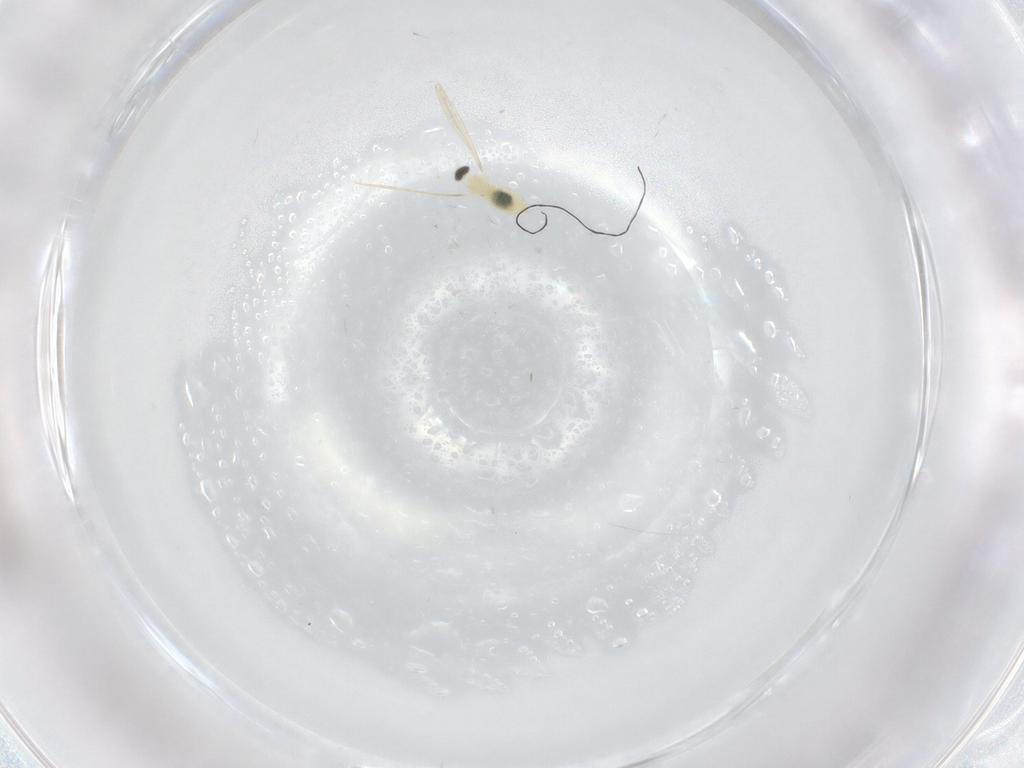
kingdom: Animalia
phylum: Arthropoda
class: Insecta
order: Diptera
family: Cecidomyiidae
